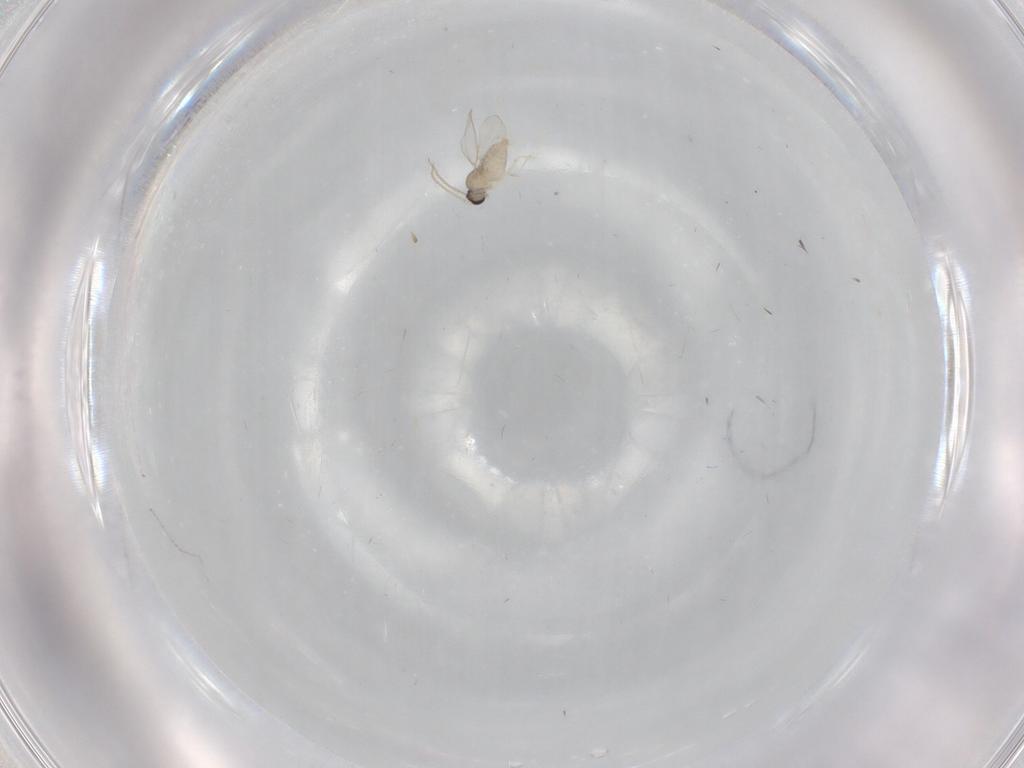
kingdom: Animalia
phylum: Arthropoda
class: Insecta
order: Diptera
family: Cecidomyiidae
